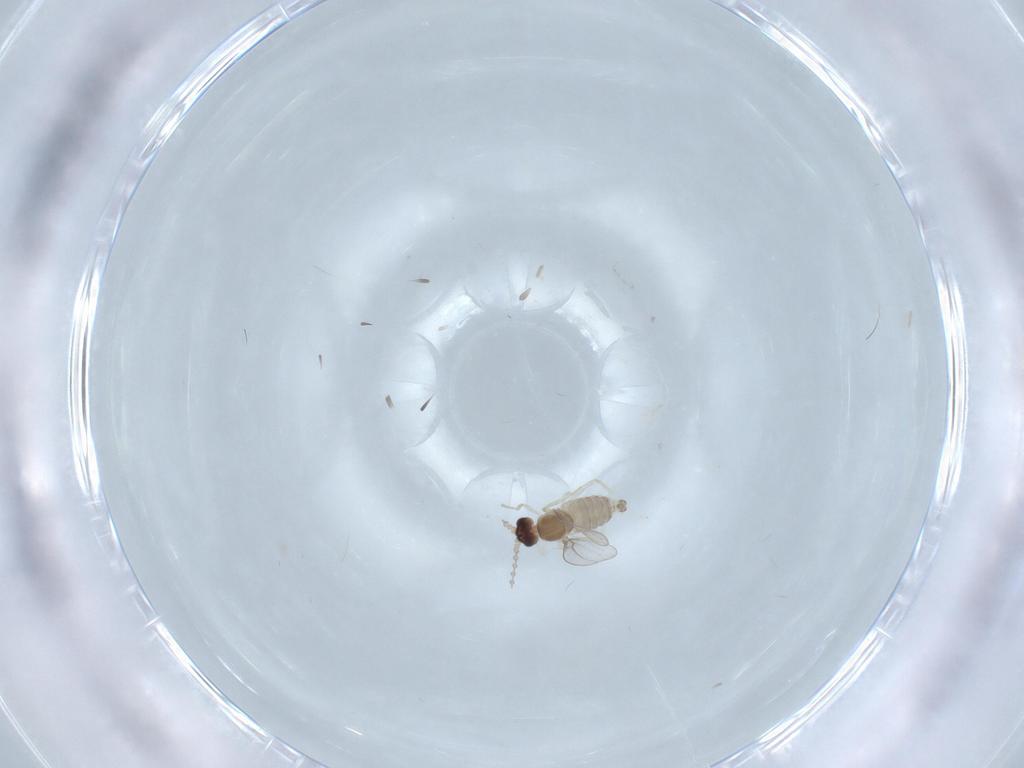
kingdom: Animalia
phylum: Arthropoda
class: Insecta
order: Diptera
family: Cecidomyiidae
